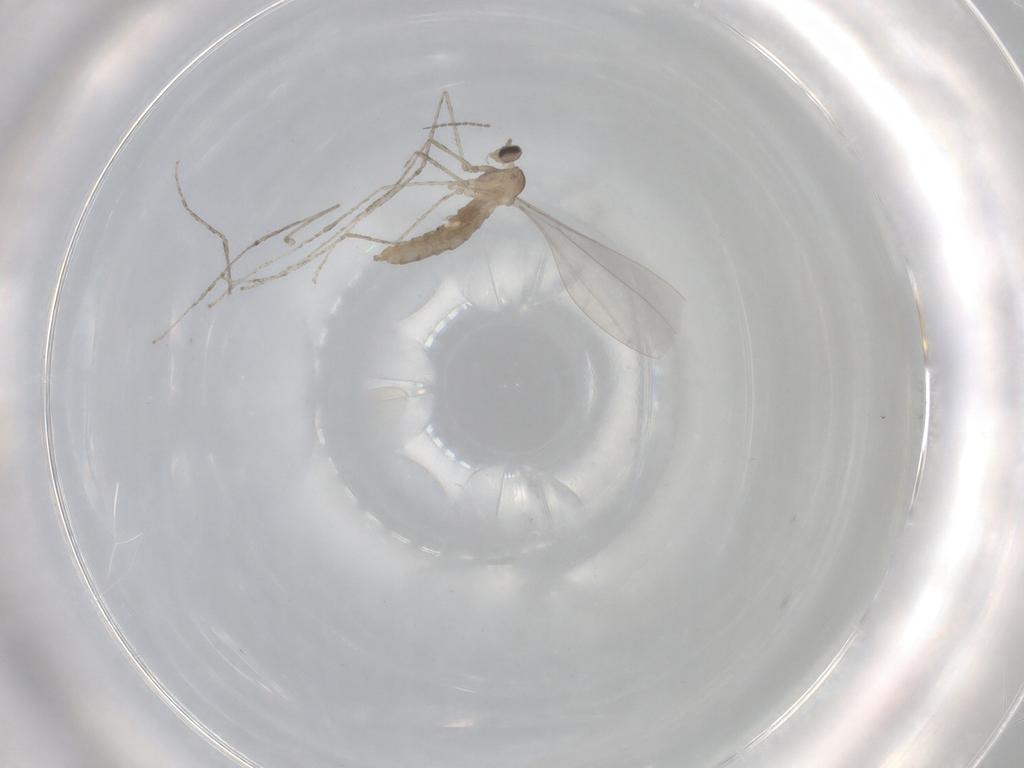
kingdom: Animalia
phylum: Arthropoda
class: Insecta
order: Diptera
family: Cecidomyiidae
